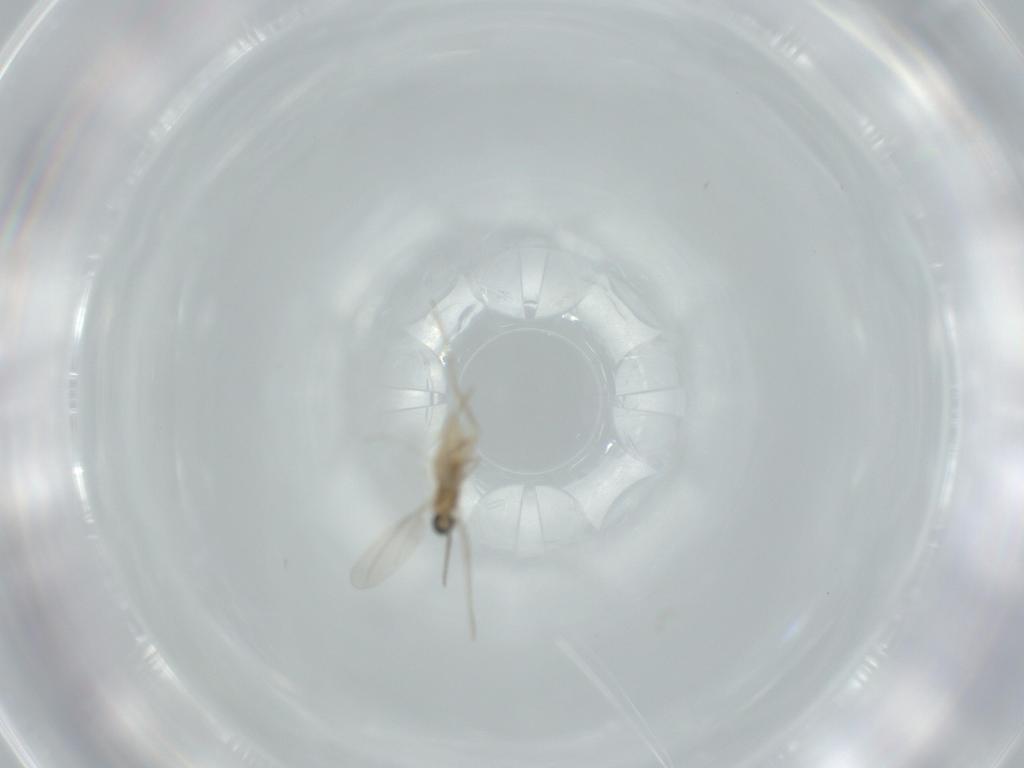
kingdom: Animalia
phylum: Arthropoda
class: Insecta
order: Diptera
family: Cecidomyiidae
